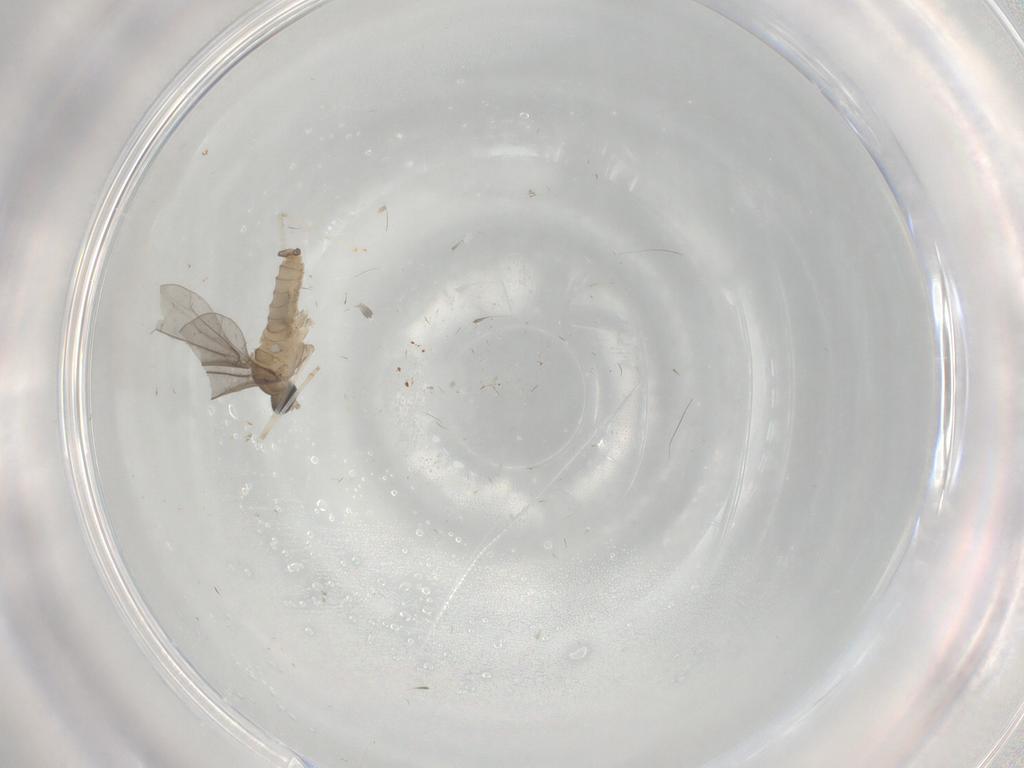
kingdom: Animalia
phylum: Arthropoda
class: Insecta
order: Diptera
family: Cecidomyiidae
